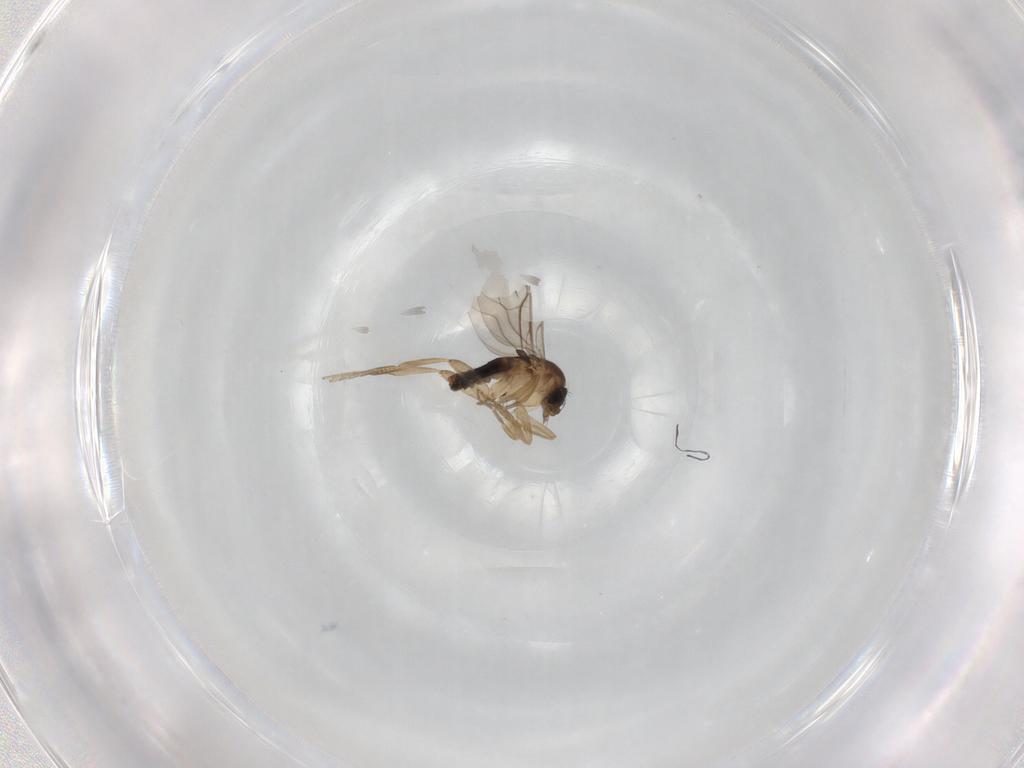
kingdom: Animalia
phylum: Arthropoda
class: Insecta
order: Diptera
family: Phoridae
